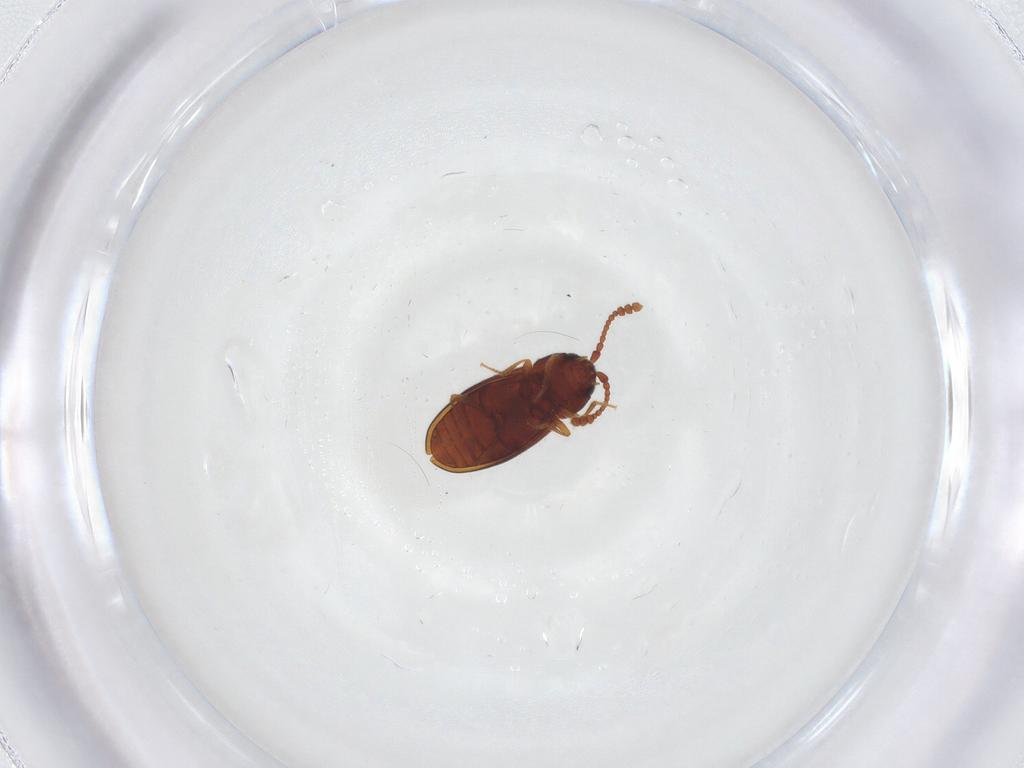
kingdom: Animalia
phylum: Arthropoda
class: Insecta
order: Coleoptera
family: Cryptophagidae
